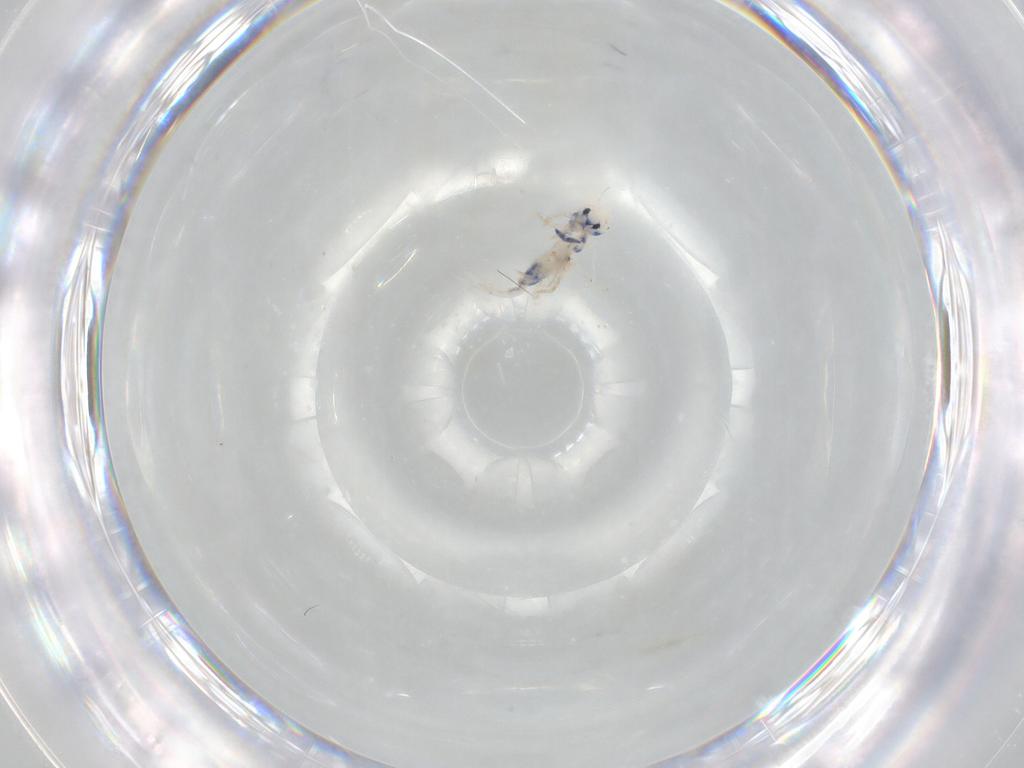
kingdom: Animalia
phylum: Arthropoda
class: Collembola
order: Entomobryomorpha
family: Entomobryidae
